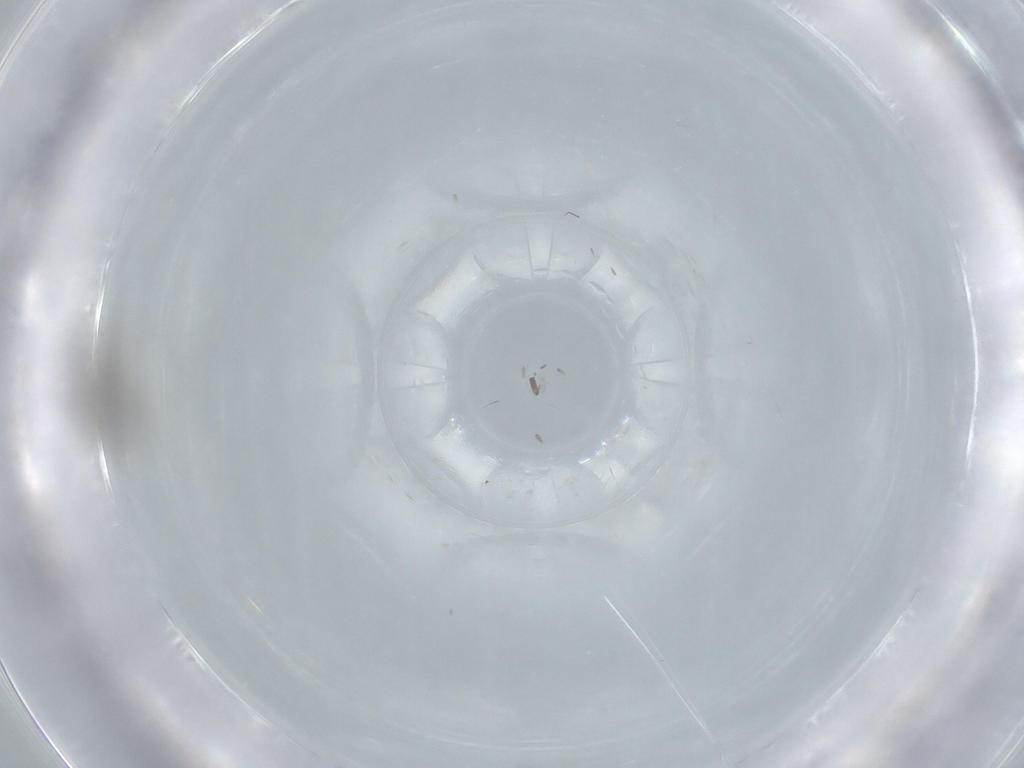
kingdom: Animalia
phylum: Arthropoda
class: Insecta
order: Diptera
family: Cecidomyiidae
